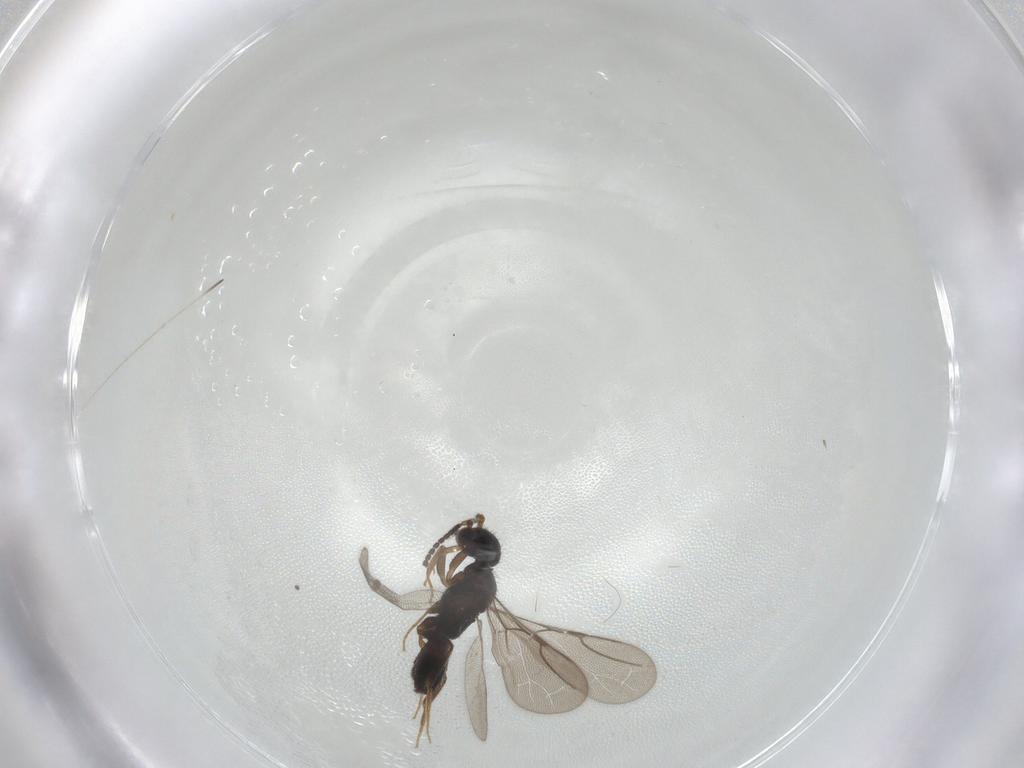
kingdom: Animalia
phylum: Arthropoda
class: Insecta
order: Hymenoptera
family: Bethylidae
